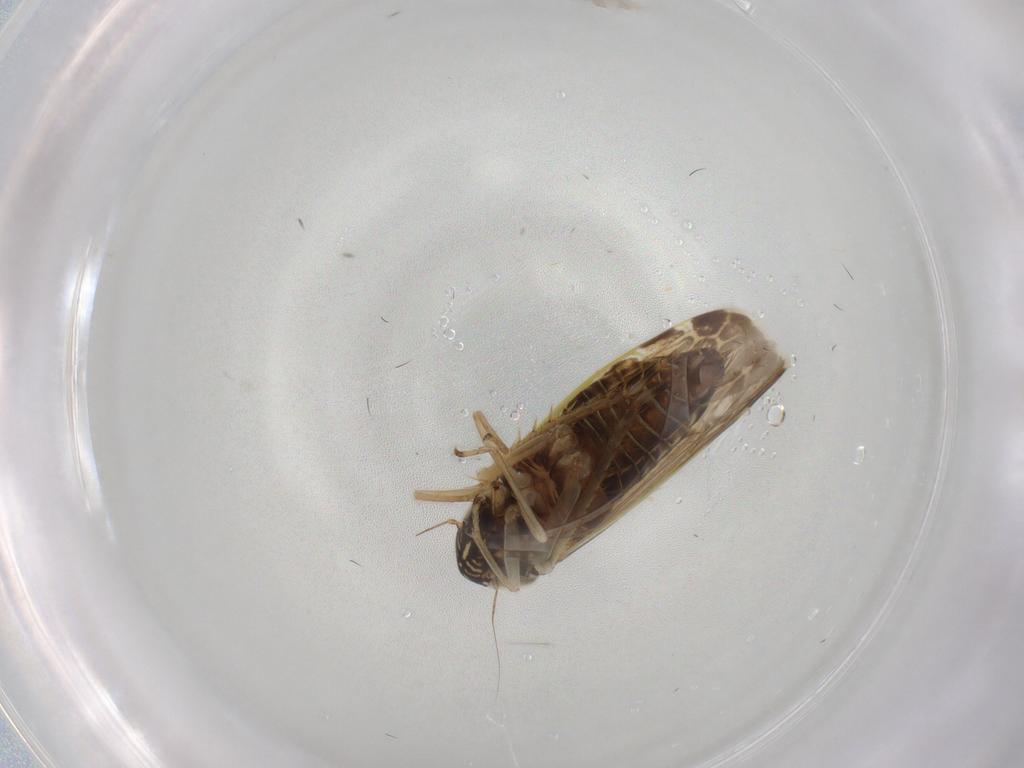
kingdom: Animalia
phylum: Arthropoda
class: Insecta
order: Hemiptera
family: Cicadellidae
